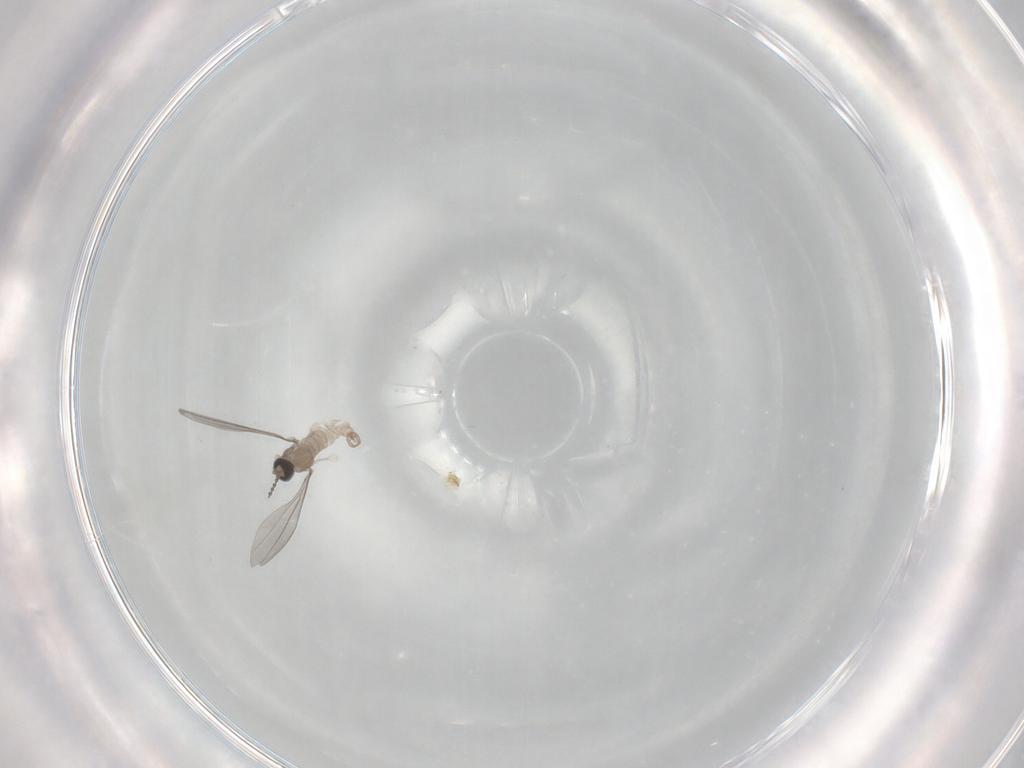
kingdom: Animalia
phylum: Arthropoda
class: Insecta
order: Diptera
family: Cecidomyiidae
